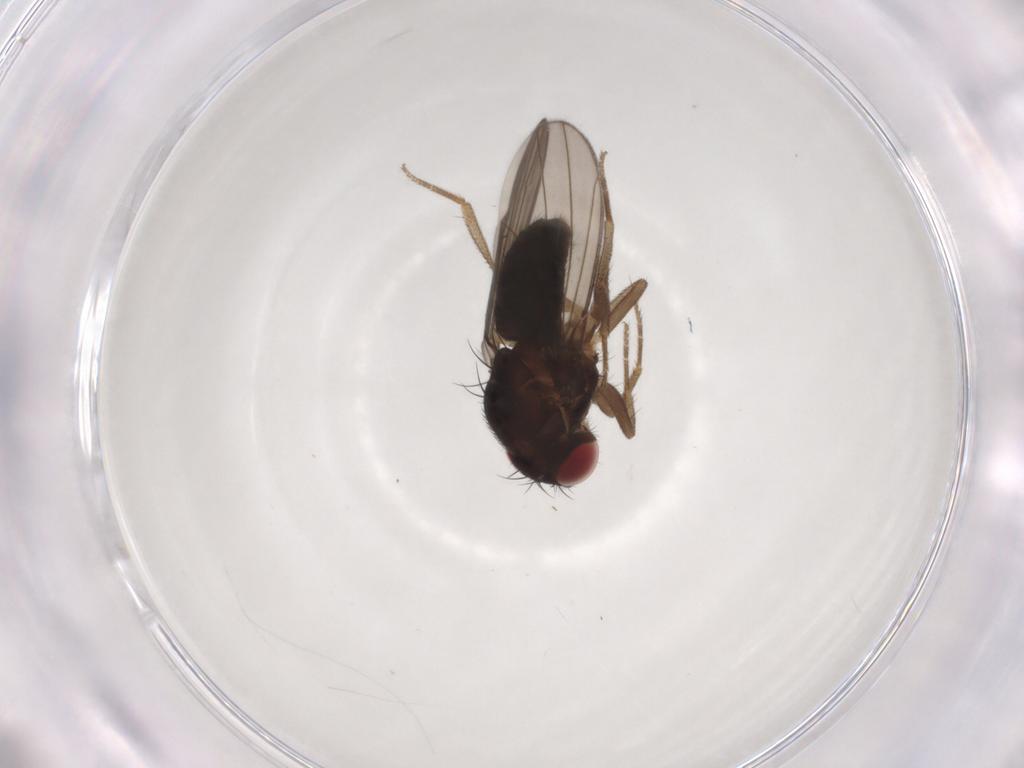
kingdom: Animalia
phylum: Arthropoda
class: Insecta
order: Diptera
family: Drosophilidae
